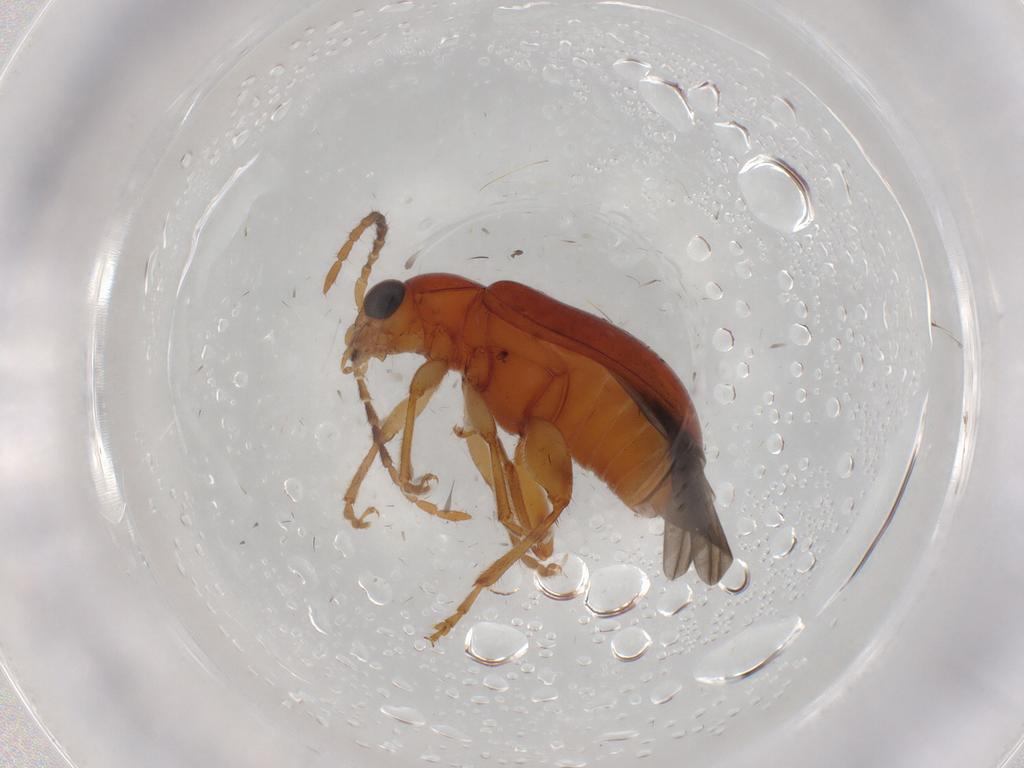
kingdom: Animalia
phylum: Arthropoda
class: Insecta
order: Coleoptera
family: Chrysomelidae
